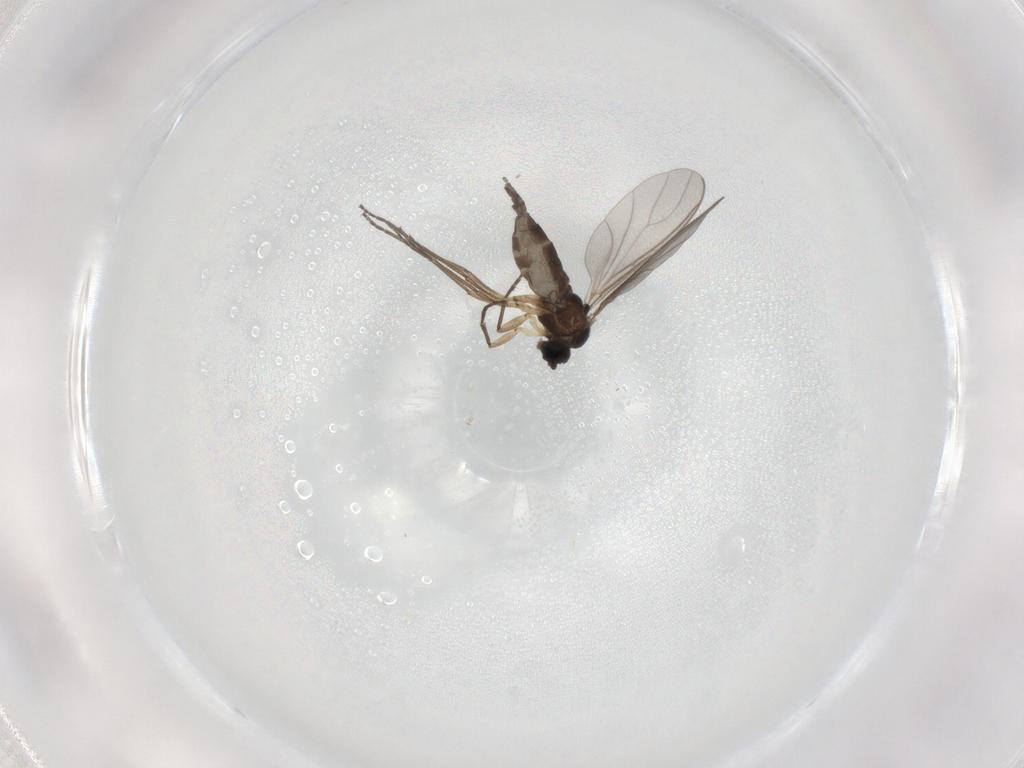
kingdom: Animalia
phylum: Arthropoda
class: Insecta
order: Diptera
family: Sciaridae
